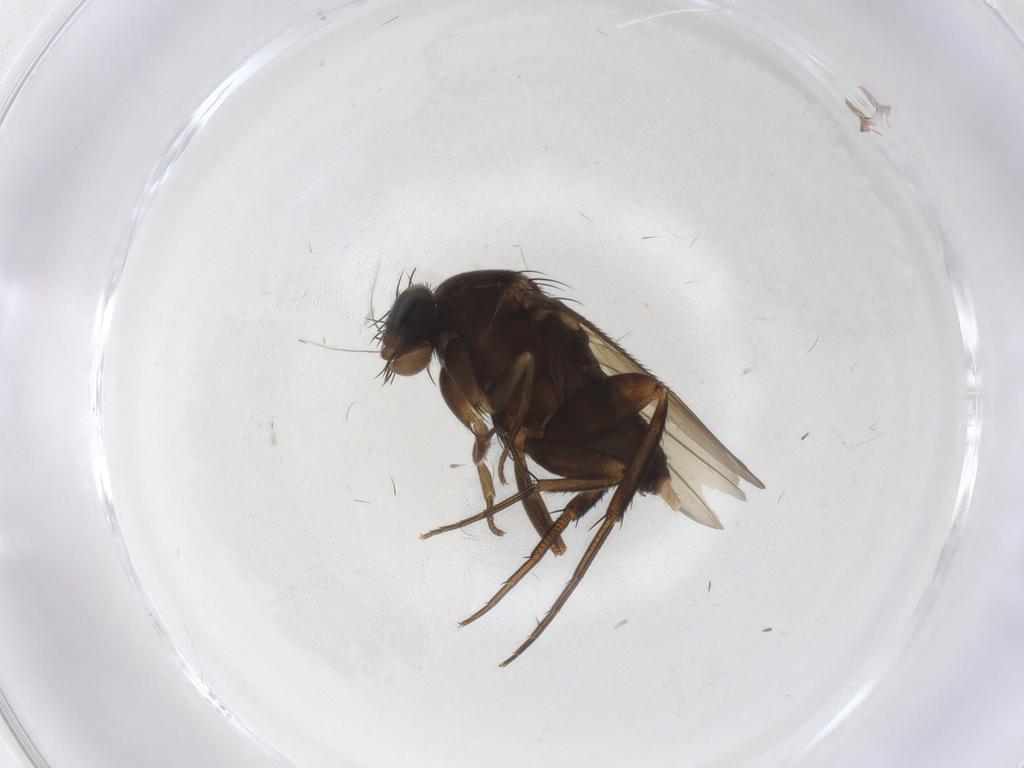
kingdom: Animalia
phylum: Arthropoda
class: Insecta
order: Diptera
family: Phoridae
